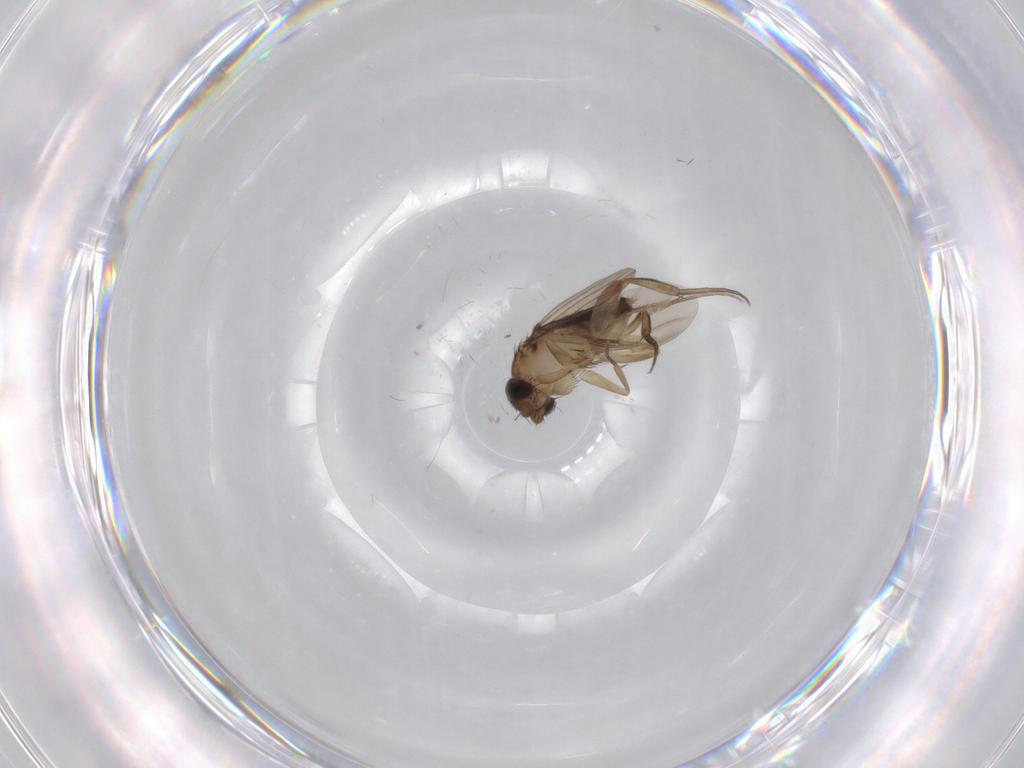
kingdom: Animalia
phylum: Arthropoda
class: Insecta
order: Diptera
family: Phoridae
